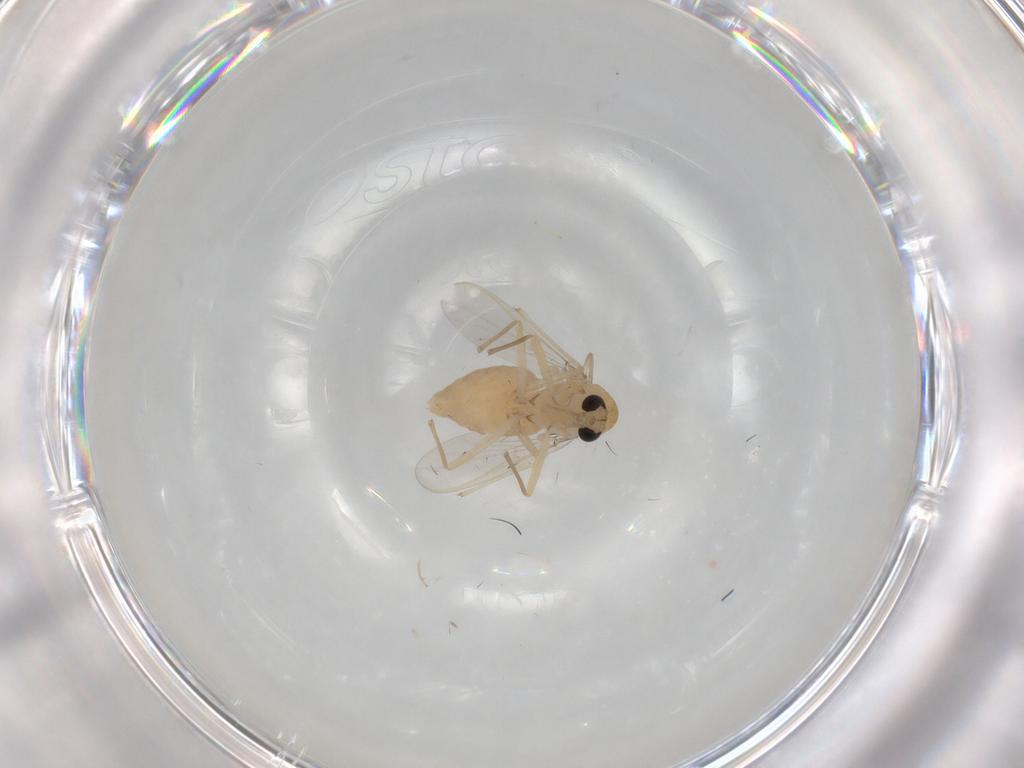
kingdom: Animalia
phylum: Arthropoda
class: Insecta
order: Diptera
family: Chironomidae
